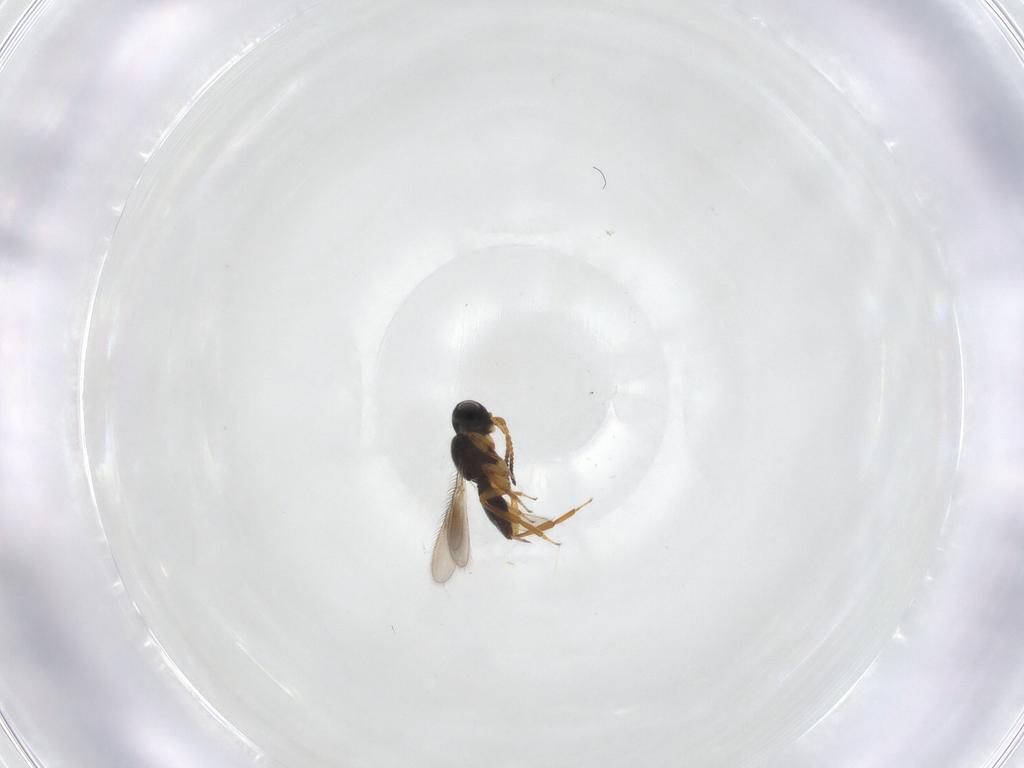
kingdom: Animalia
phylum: Arthropoda
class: Insecta
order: Hymenoptera
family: Scelionidae
